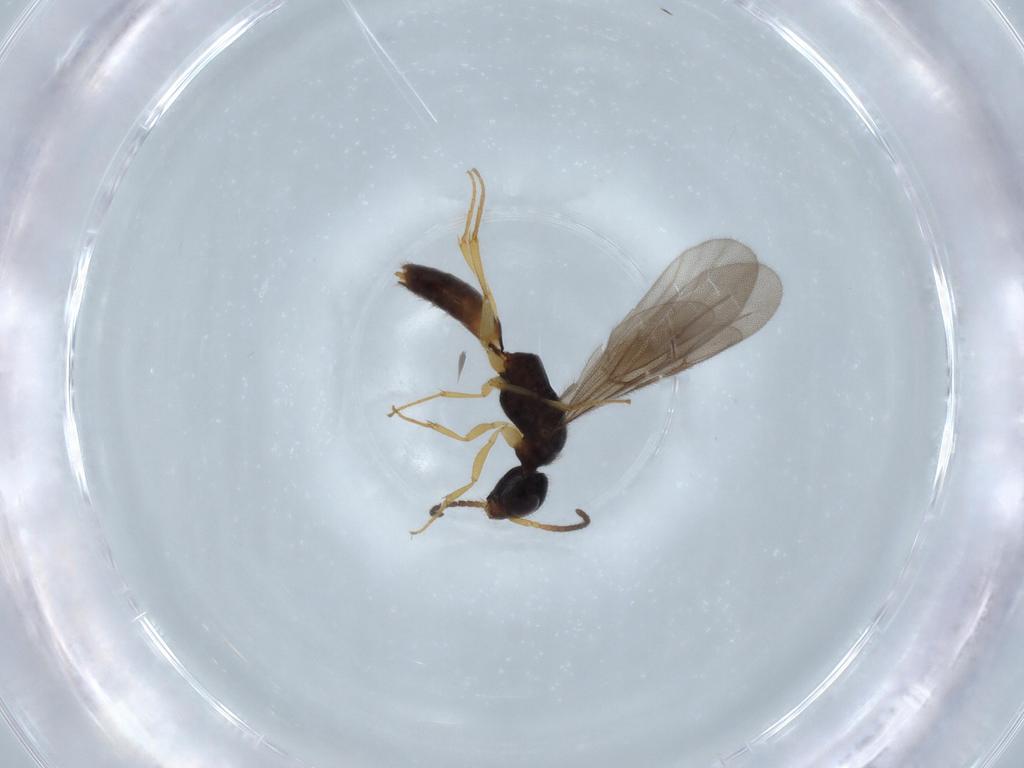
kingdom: Animalia
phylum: Arthropoda
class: Insecta
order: Hymenoptera
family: Bethylidae
